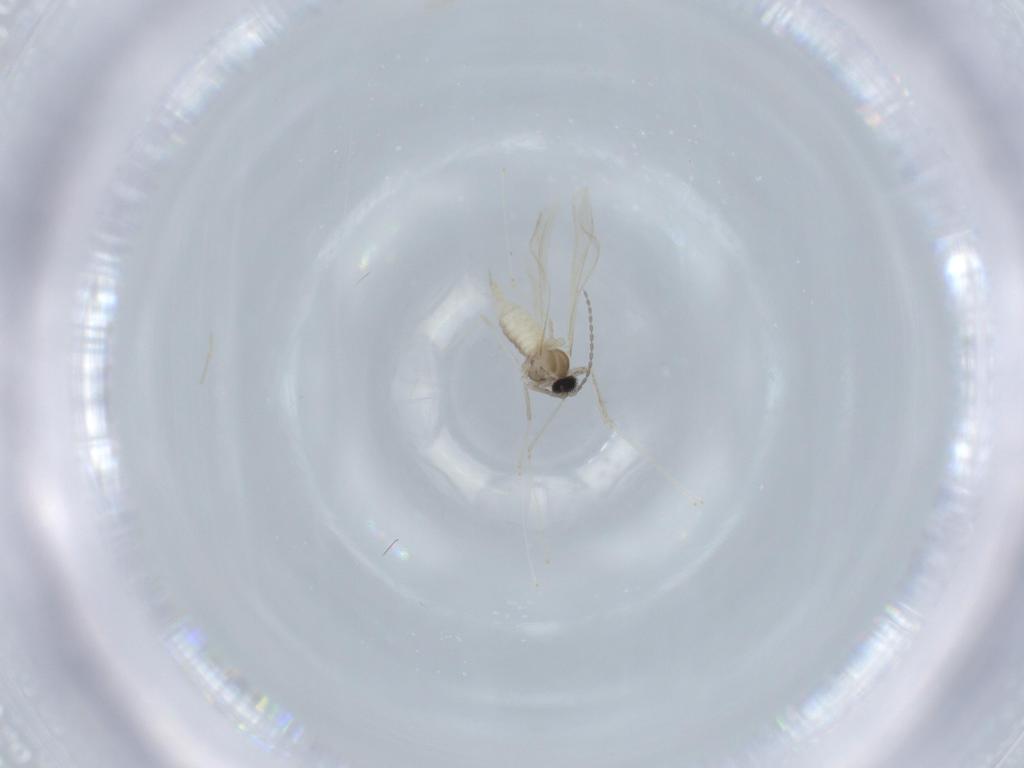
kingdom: Animalia
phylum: Arthropoda
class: Insecta
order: Diptera
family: Cecidomyiidae
